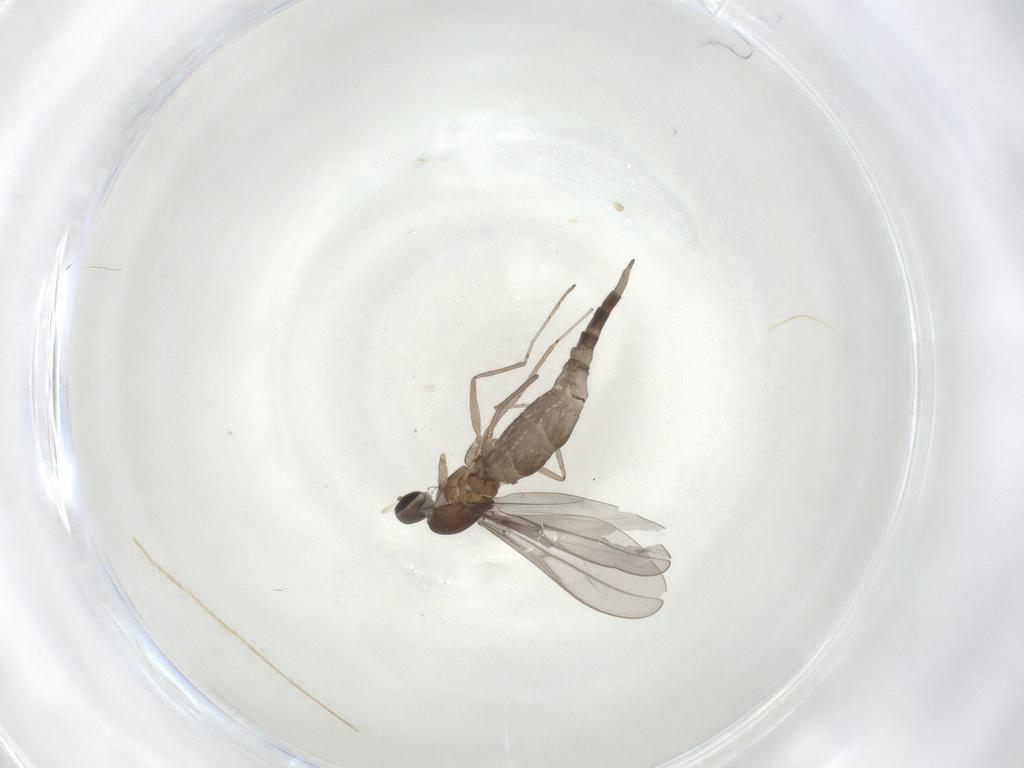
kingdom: Animalia
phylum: Arthropoda
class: Insecta
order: Diptera
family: Cecidomyiidae
